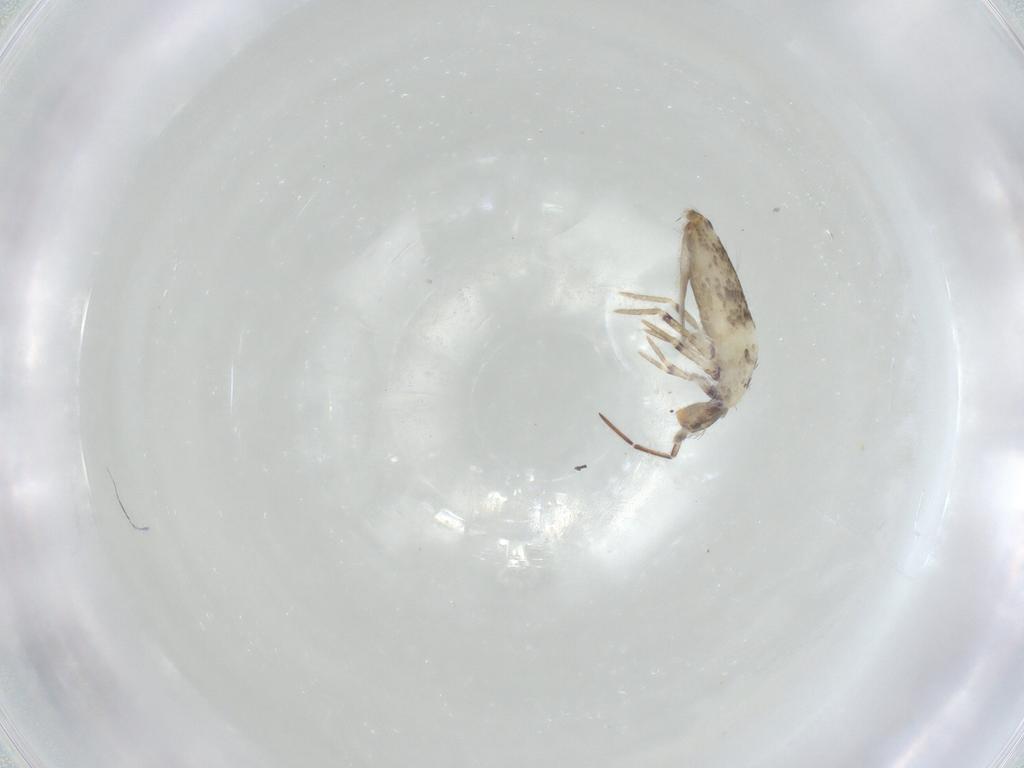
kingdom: Animalia
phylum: Arthropoda
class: Collembola
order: Entomobryomorpha
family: Entomobryidae
